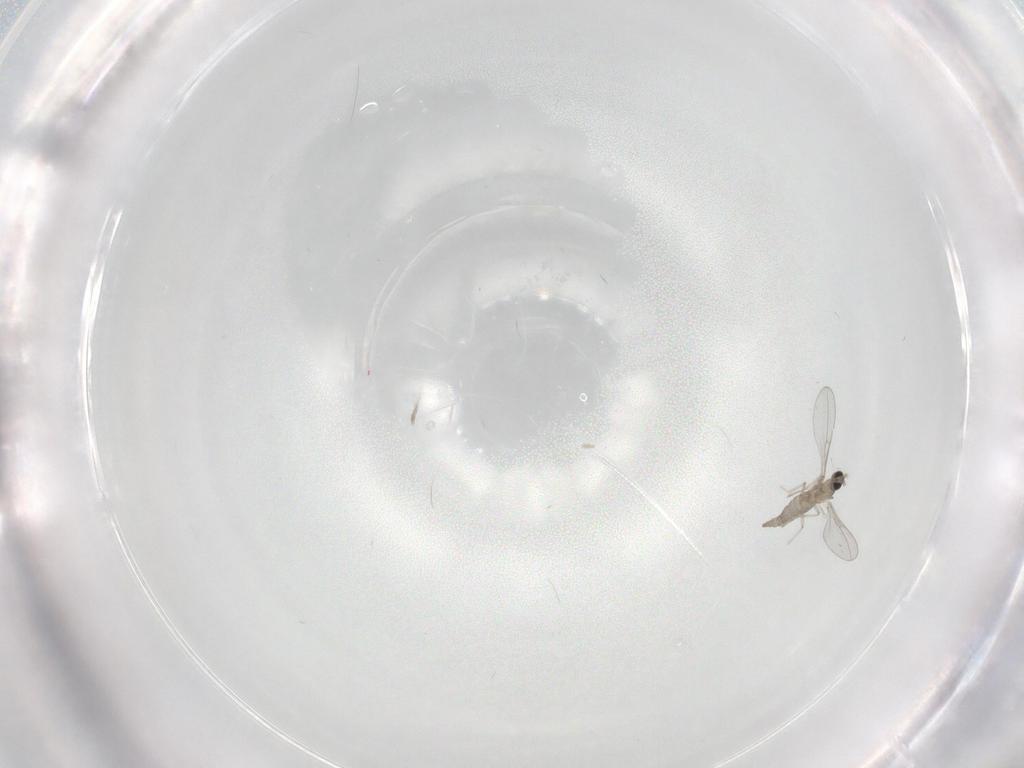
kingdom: Animalia
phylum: Arthropoda
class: Insecta
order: Diptera
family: Cecidomyiidae
